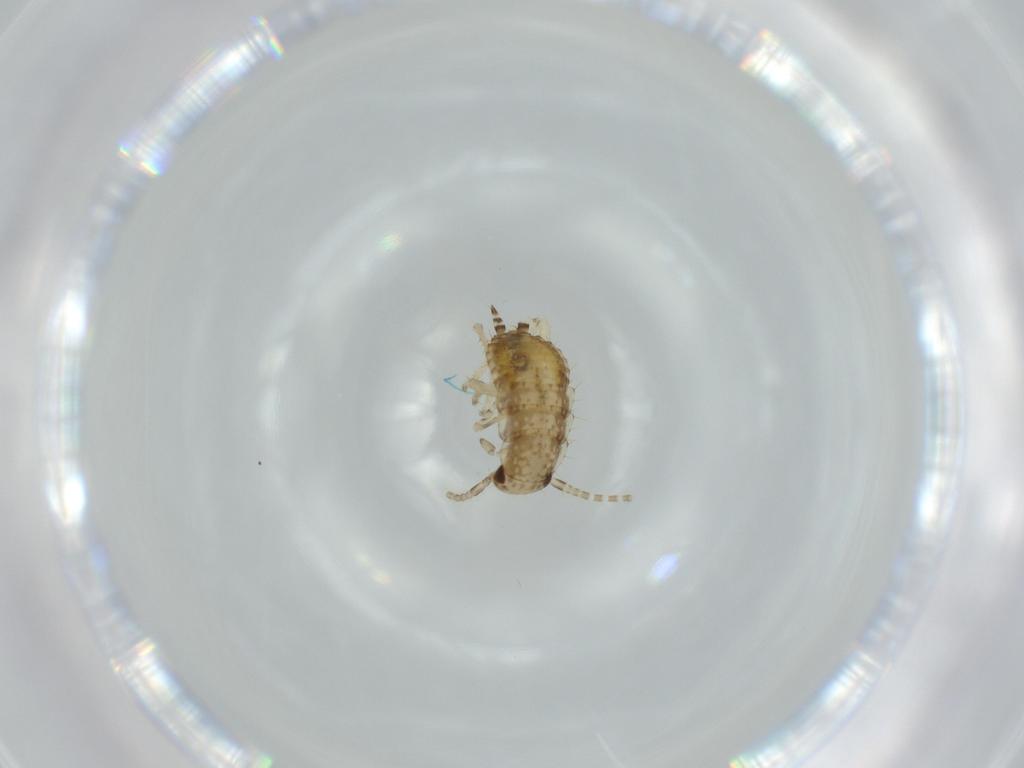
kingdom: Animalia
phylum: Arthropoda
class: Insecta
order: Blattodea
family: Ectobiidae
